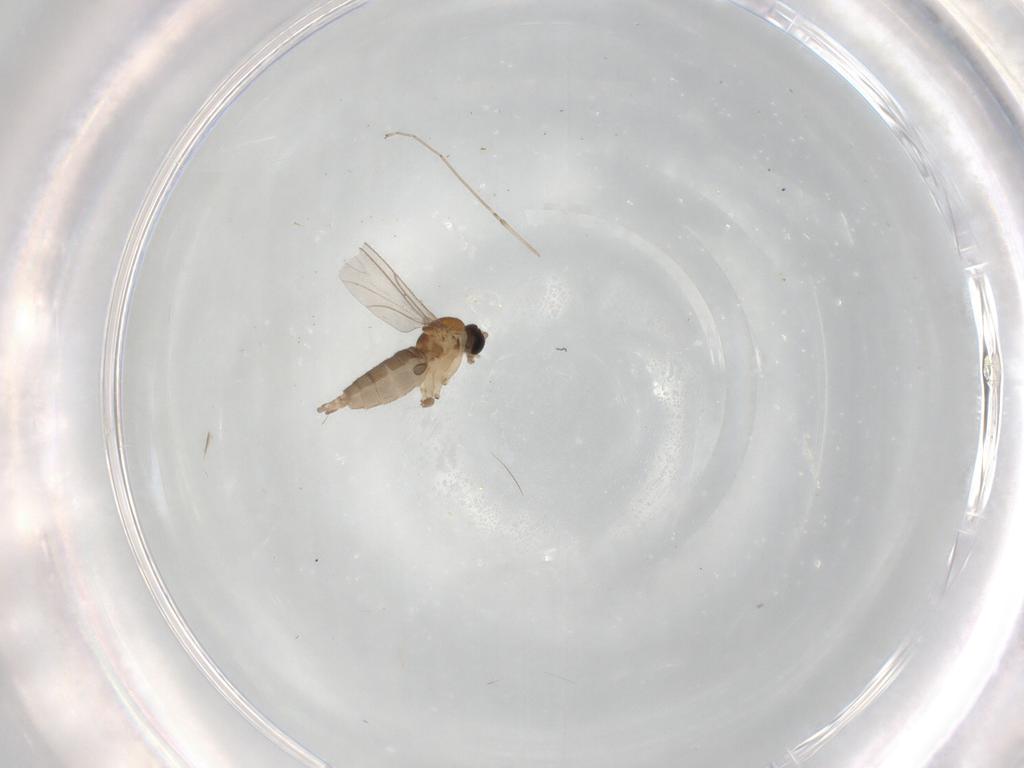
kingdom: Animalia
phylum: Arthropoda
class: Insecta
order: Diptera
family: Sciaridae
